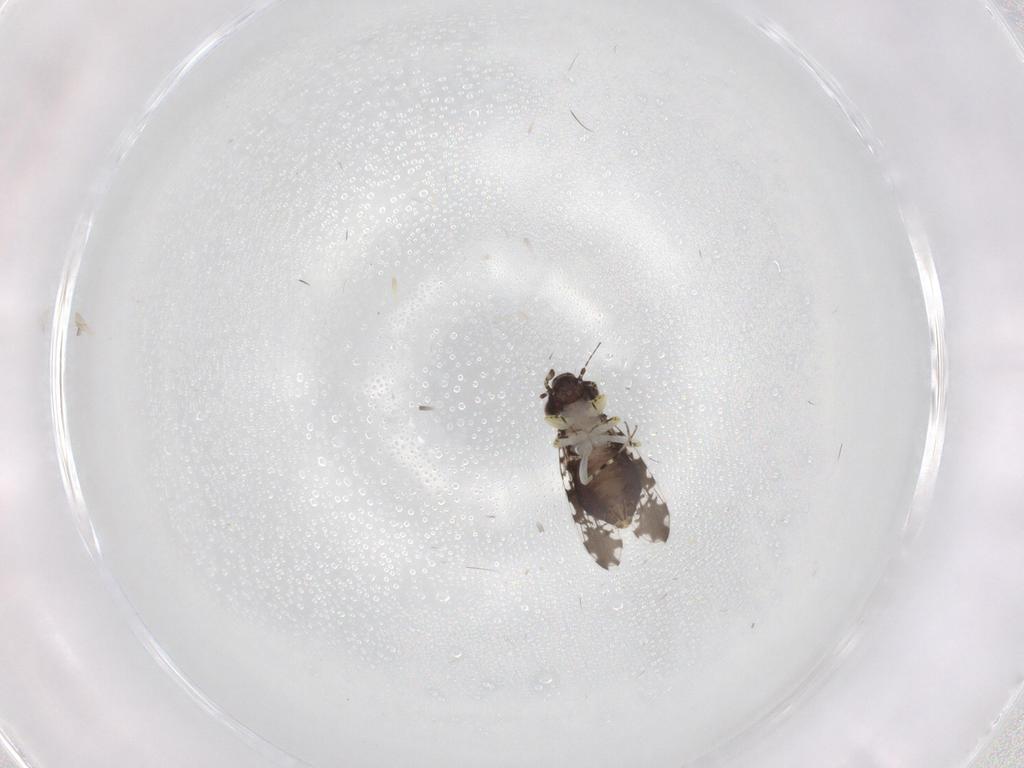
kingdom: Animalia
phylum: Arthropoda
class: Insecta
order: Psocodea
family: Psoquillidae
